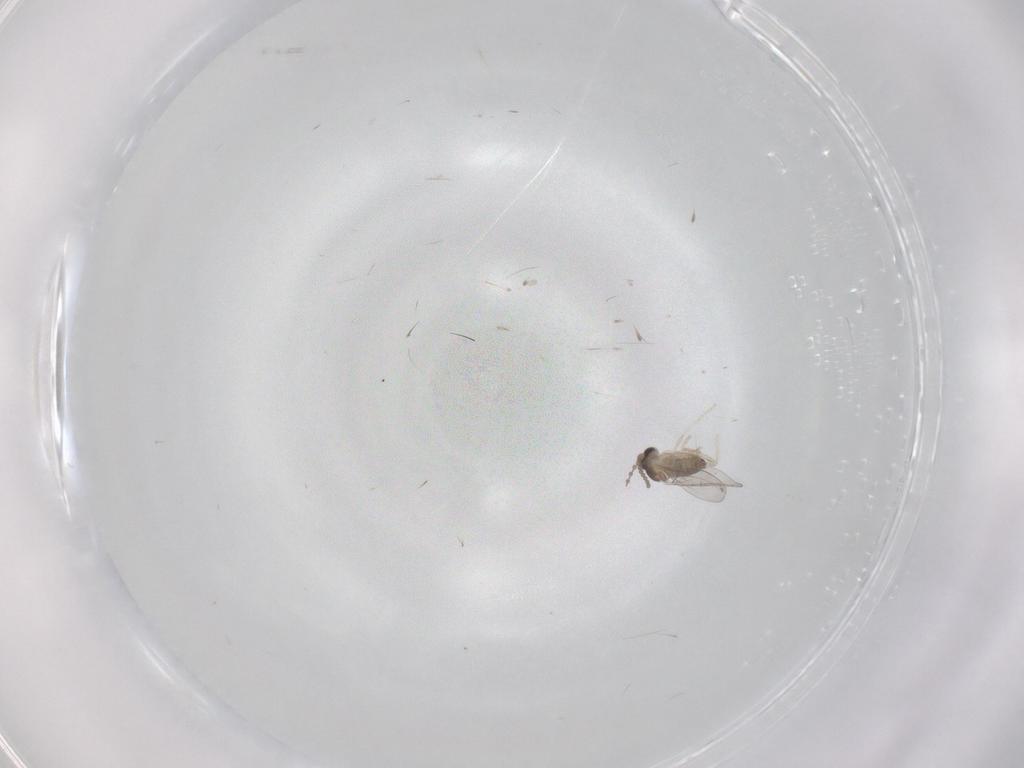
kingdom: Animalia
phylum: Arthropoda
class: Insecta
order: Diptera
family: Cecidomyiidae
